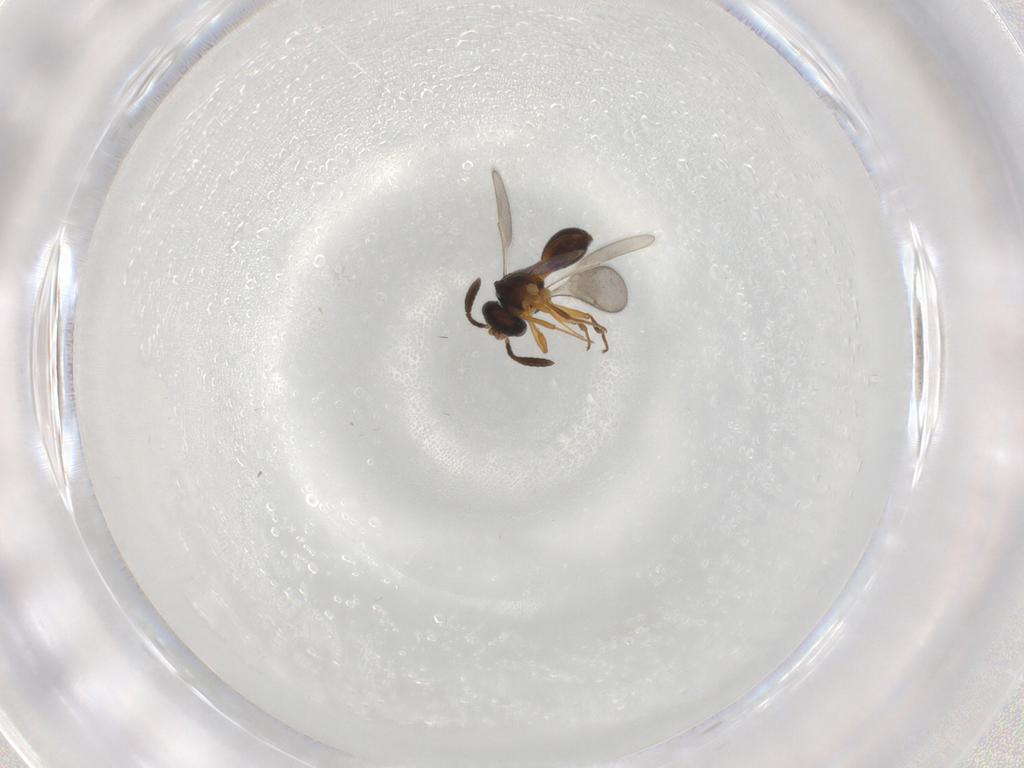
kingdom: Animalia
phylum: Arthropoda
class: Insecta
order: Hymenoptera
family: Scelionidae
